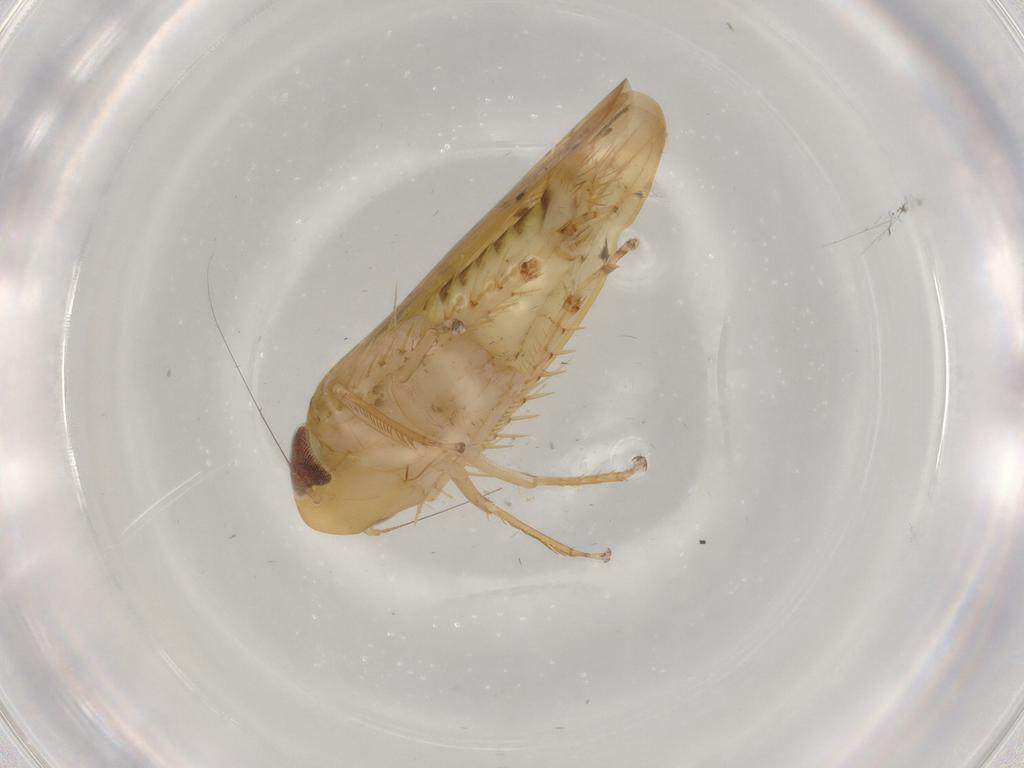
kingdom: Animalia
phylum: Arthropoda
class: Insecta
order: Hemiptera
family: Cicadellidae
